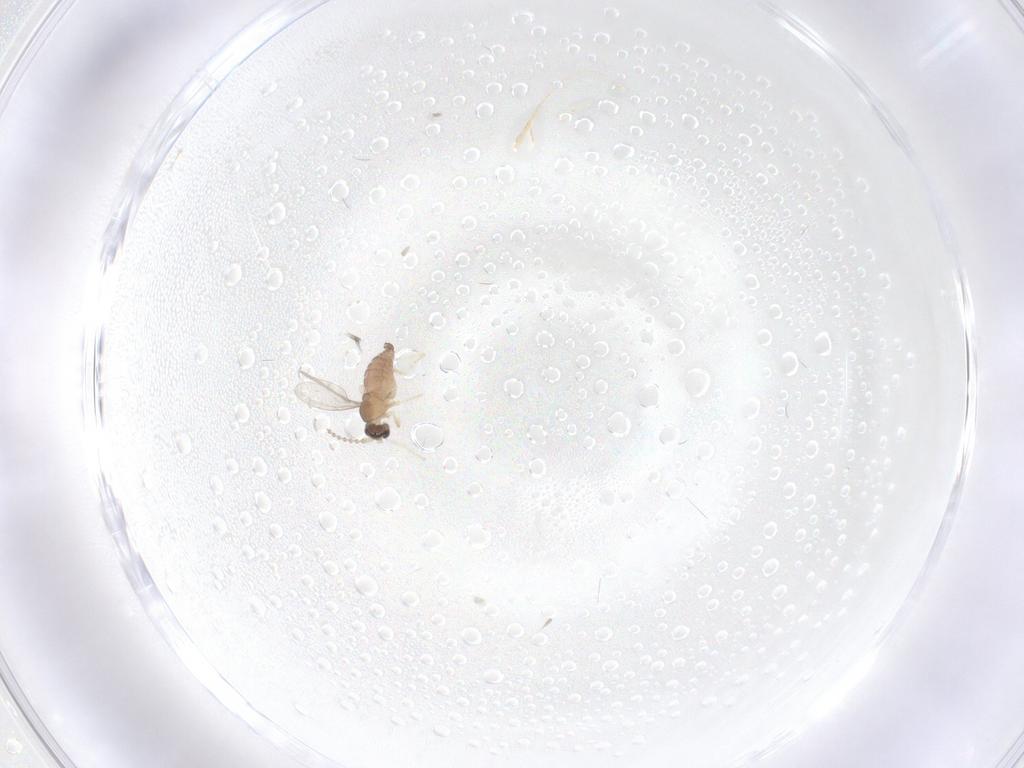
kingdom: Animalia
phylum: Arthropoda
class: Insecta
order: Diptera
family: Cecidomyiidae
